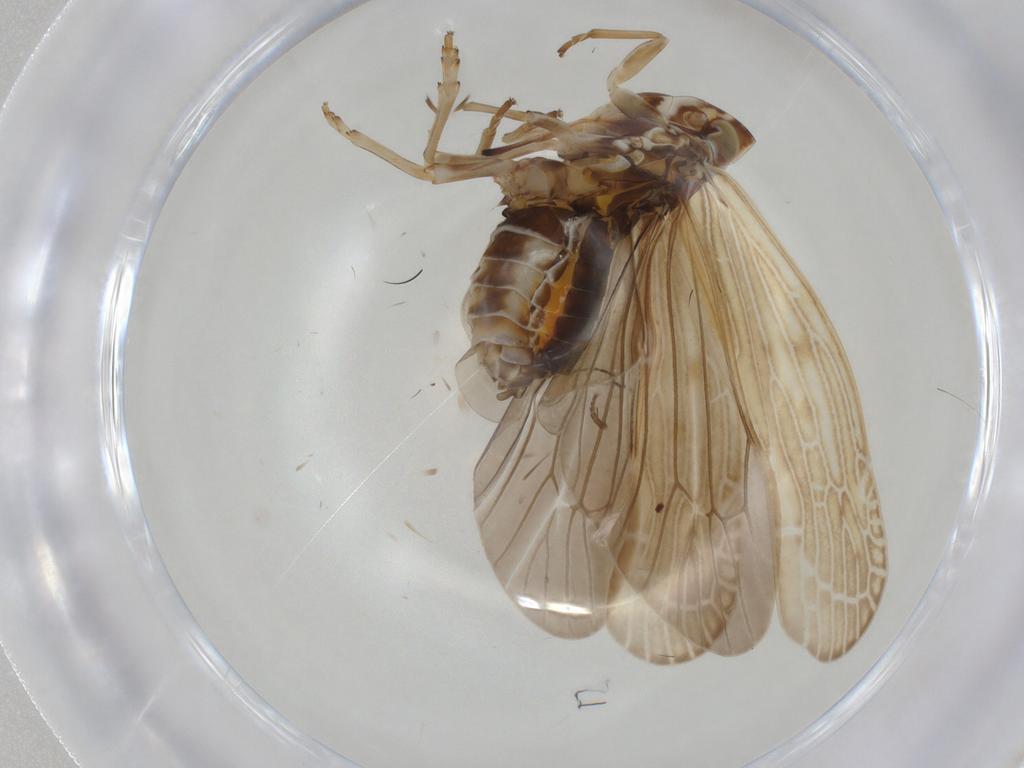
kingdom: Animalia
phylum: Arthropoda
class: Insecta
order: Hemiptera
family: Achilidae
